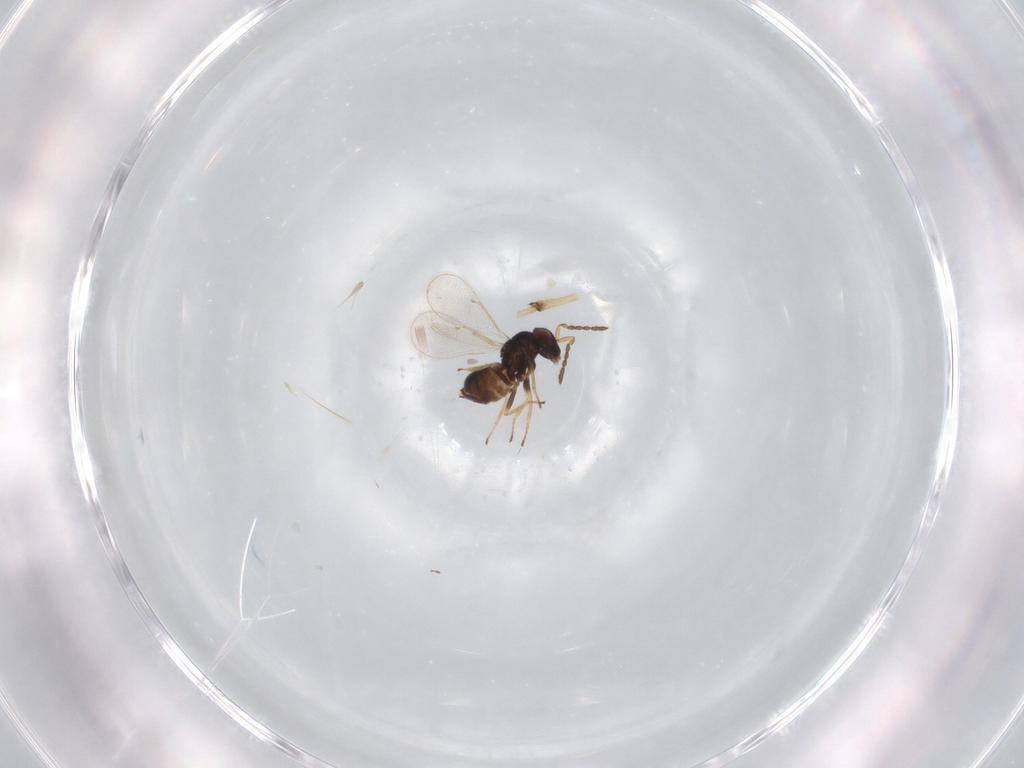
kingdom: Animalia
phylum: Arthropoda
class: Insecta
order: Hymenoptera
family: Eulophidae
